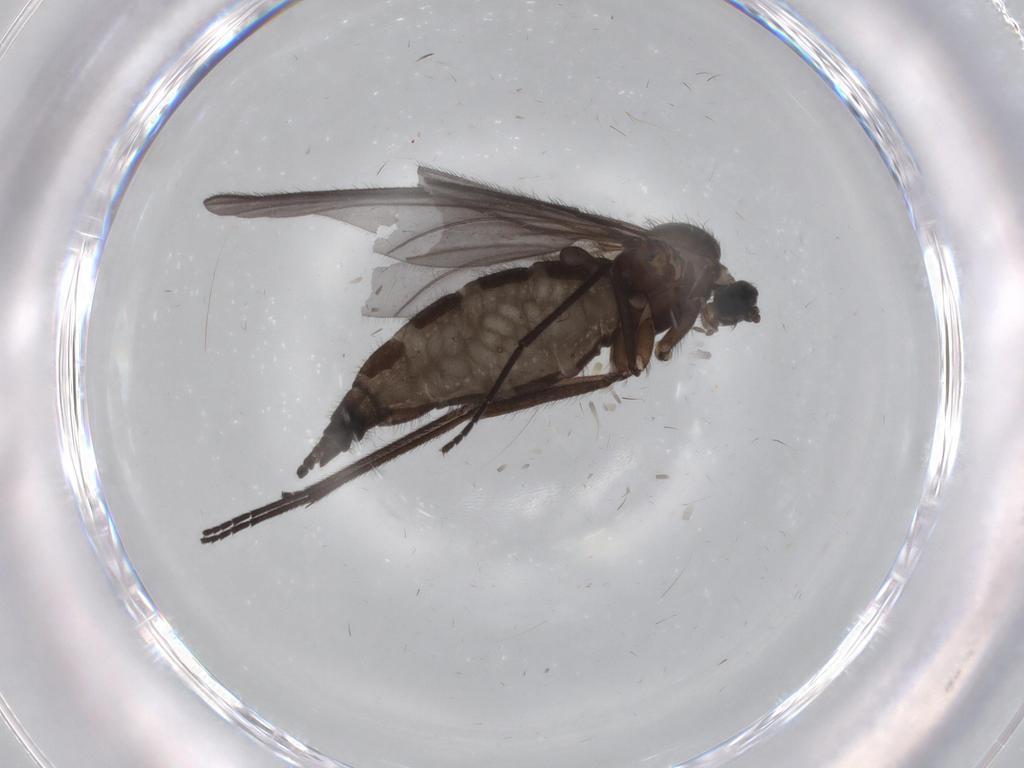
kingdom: Animalia
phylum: Arthropoda
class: Insecta
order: Diptera
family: Sciaridae
